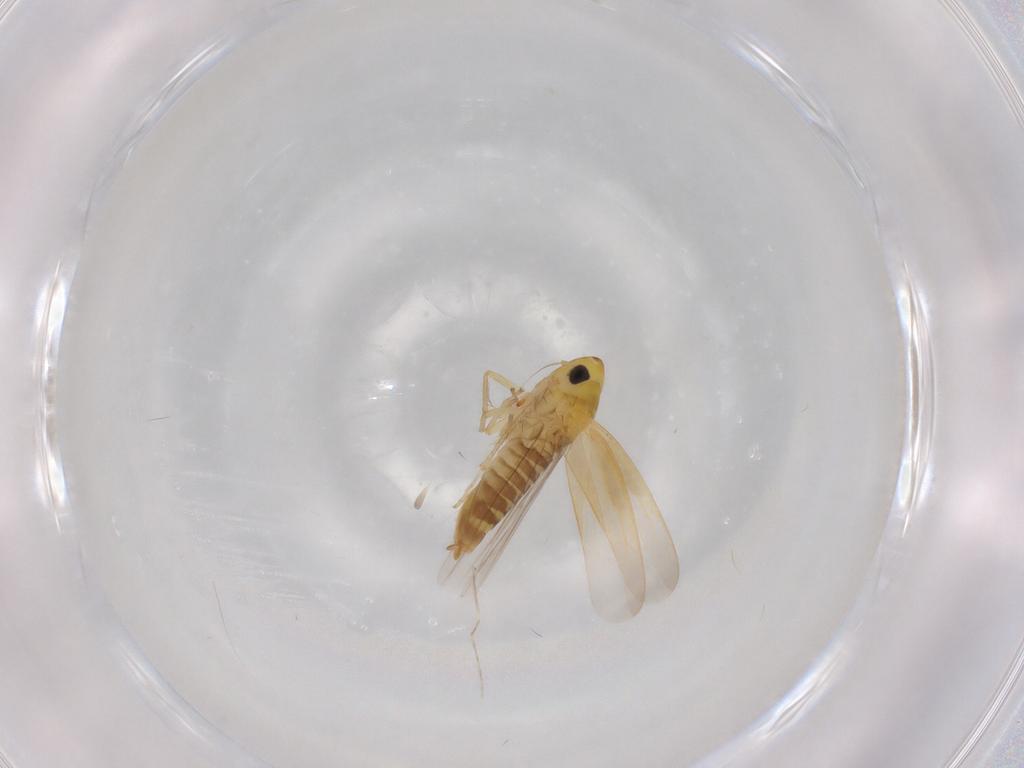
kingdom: Animalia
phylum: Arthropoda
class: Insecta
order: Hemiptera
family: Cicadellidae
